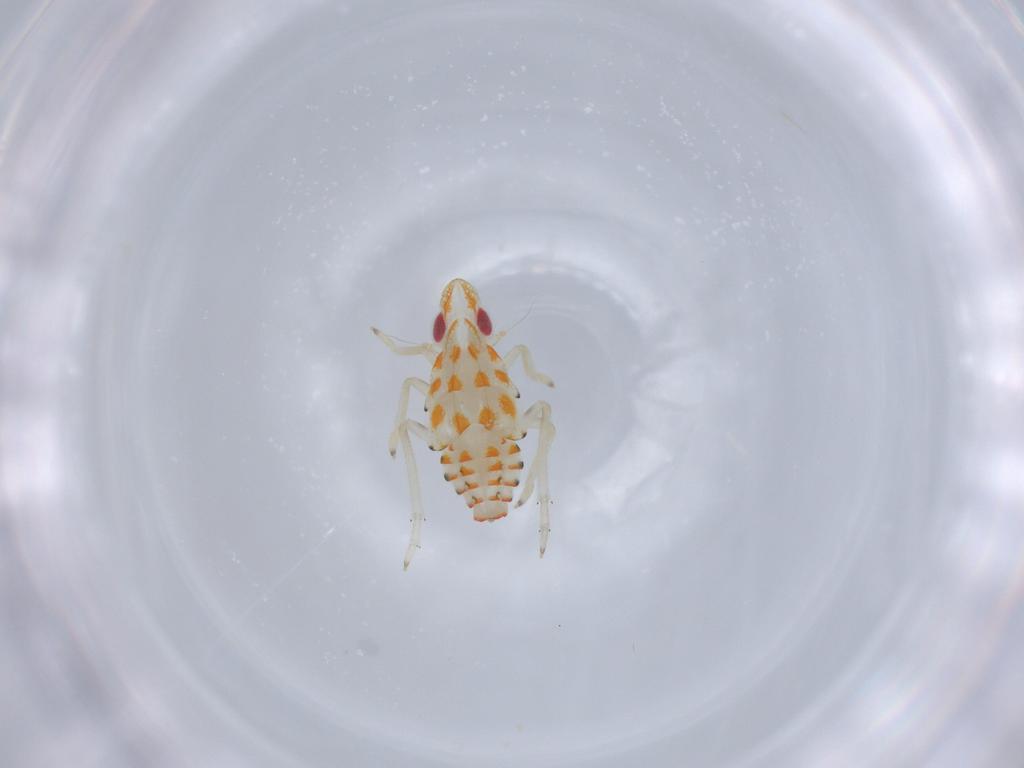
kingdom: Animalia
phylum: Arthropoda
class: Insecta
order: Hemiptera
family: Tropiduchidae
